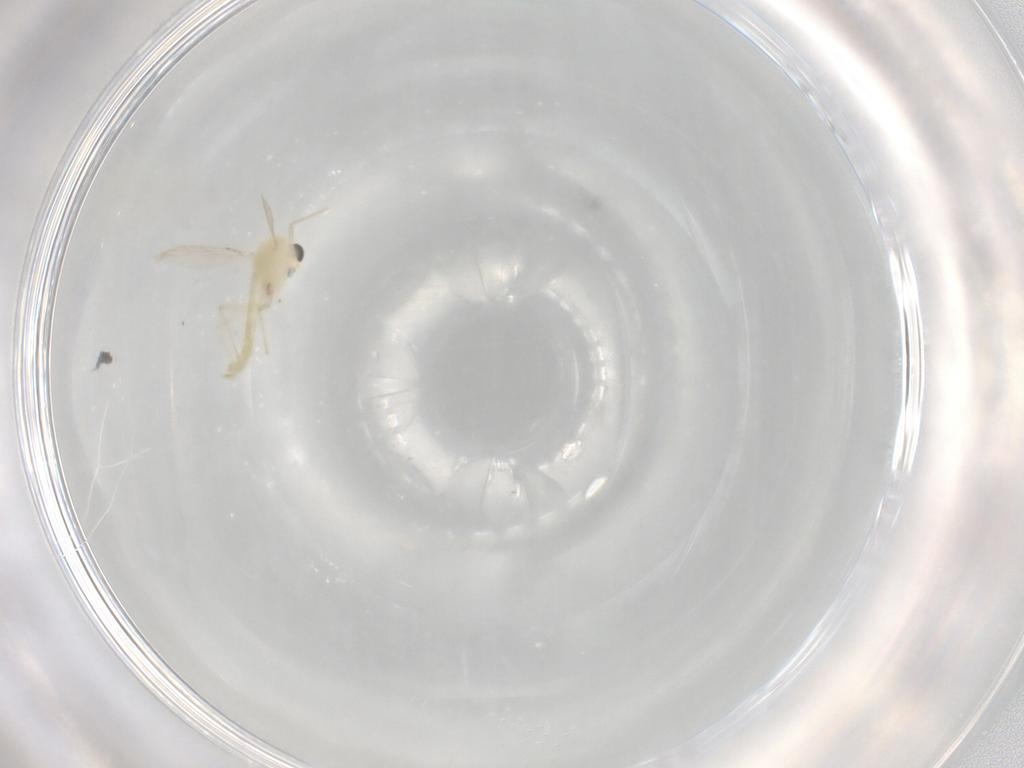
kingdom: Animalia
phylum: Arthropoda
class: Insecta
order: Diptera
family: Chironomidae
